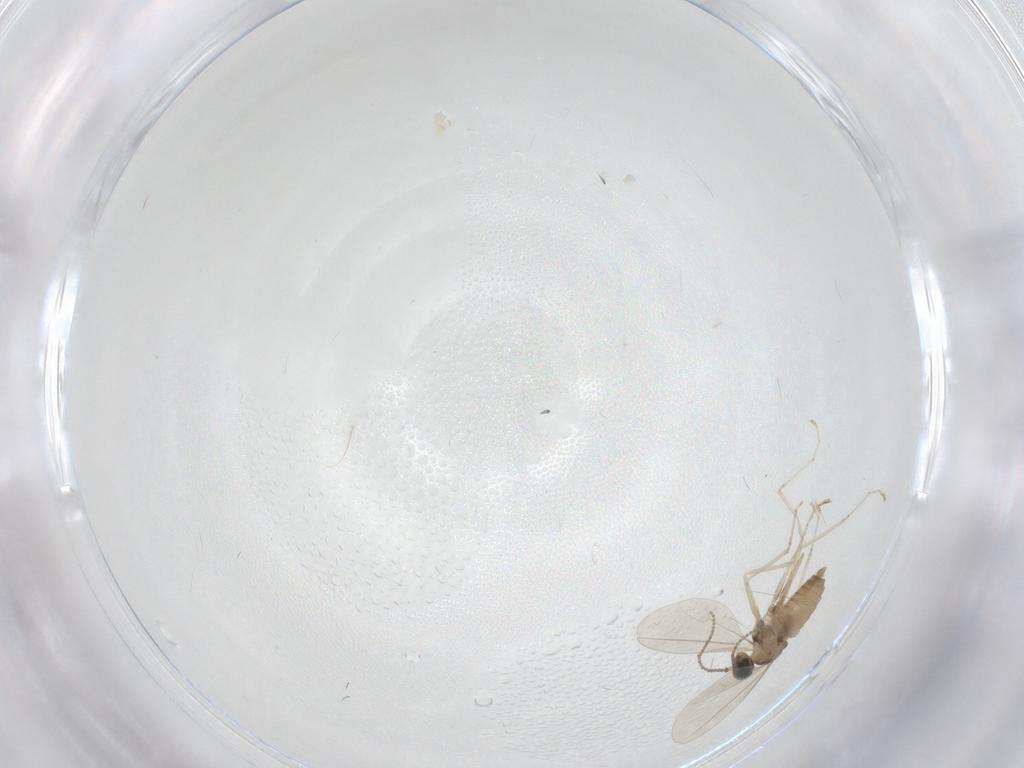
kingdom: Animalia
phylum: Arthropoda
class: Insecta
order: Diptera
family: Cecidomyiidae
